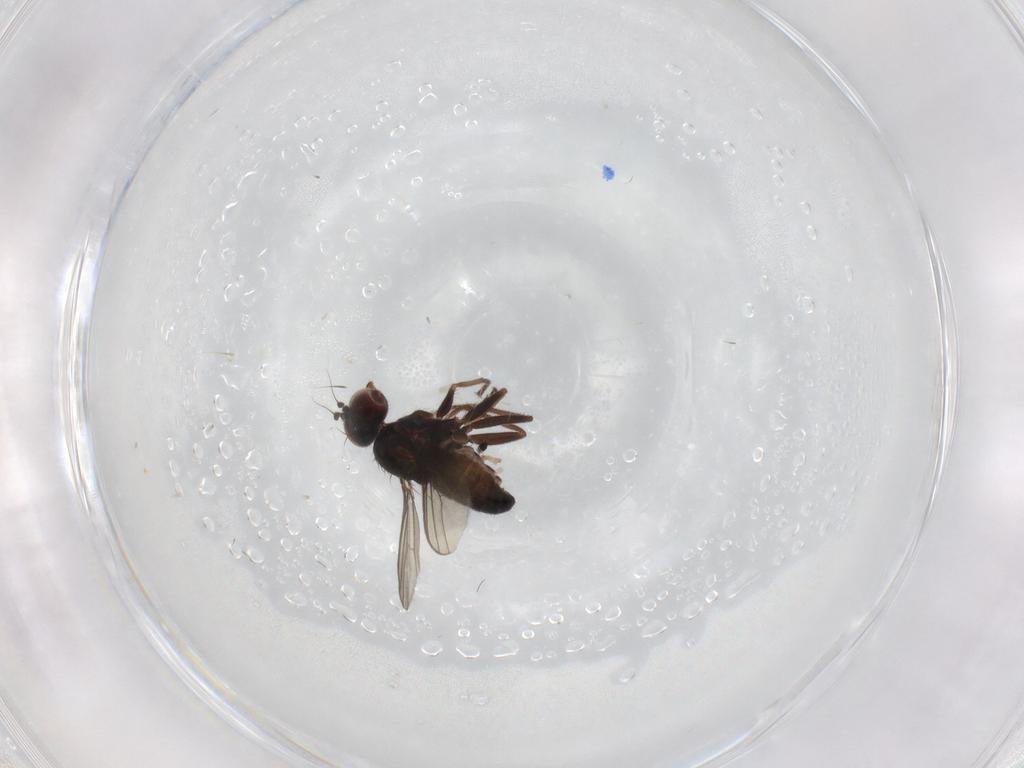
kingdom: Animalia
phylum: Arthropoda
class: Insecta
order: Diptera
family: Dolichopodidae
